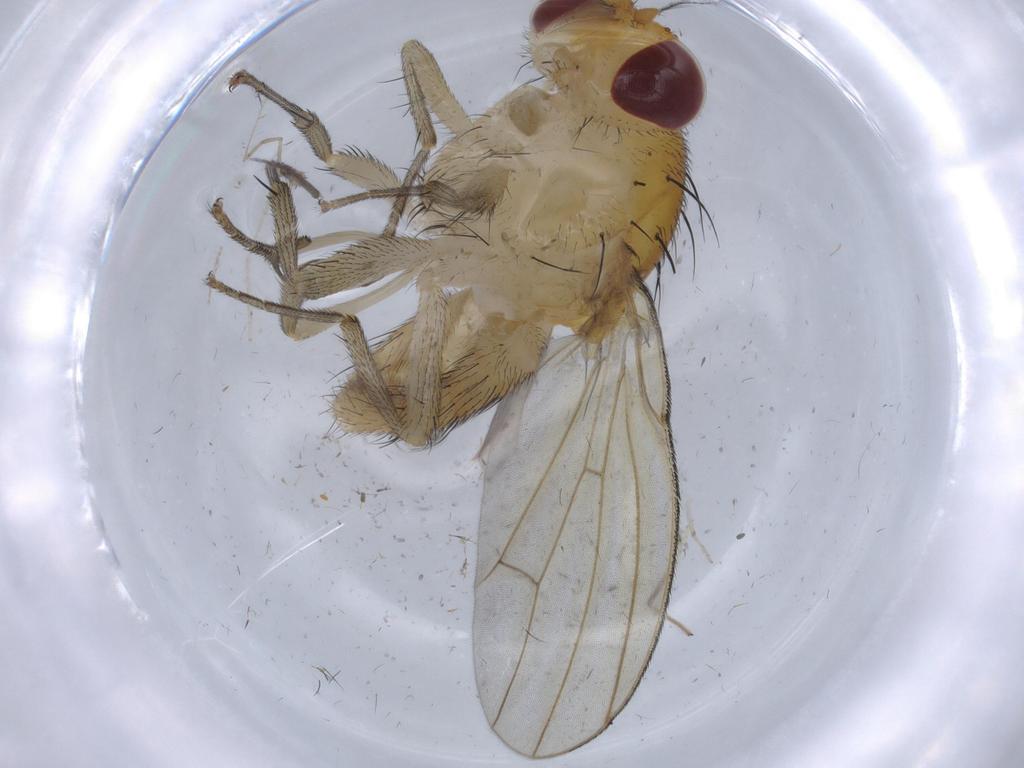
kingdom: Animalia
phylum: Arthropoda
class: Insecta
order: Diptera
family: Chironomidae
